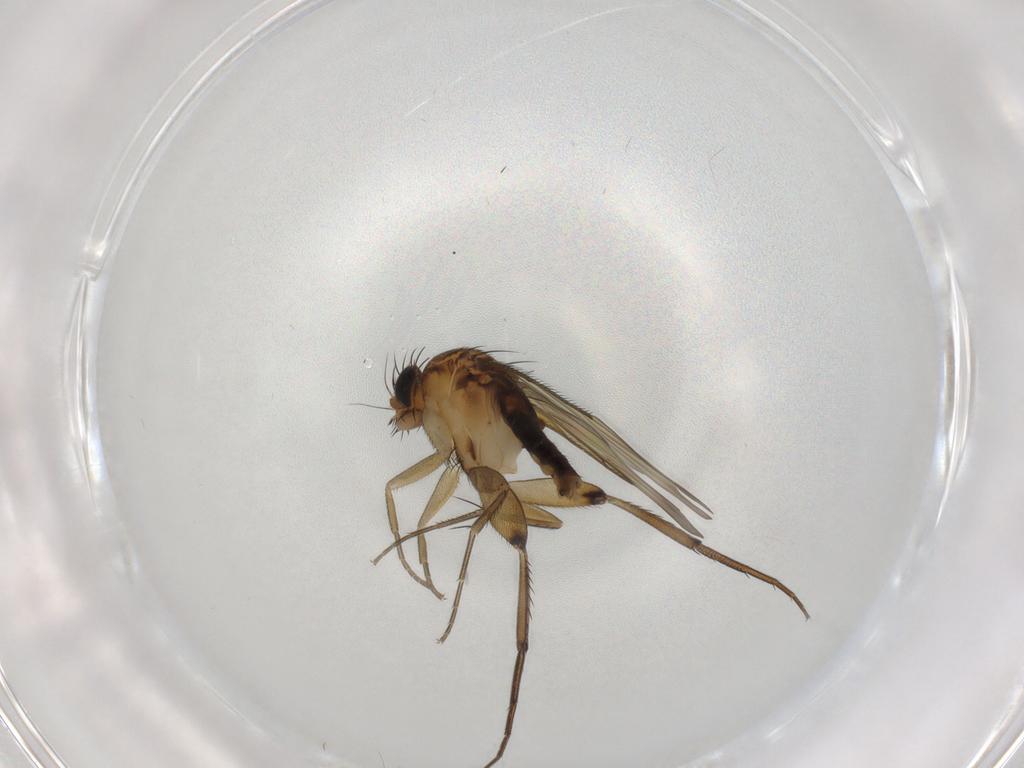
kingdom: Animalia
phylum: Arthropoda
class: Insecta
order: Diptera
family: Phoridae
